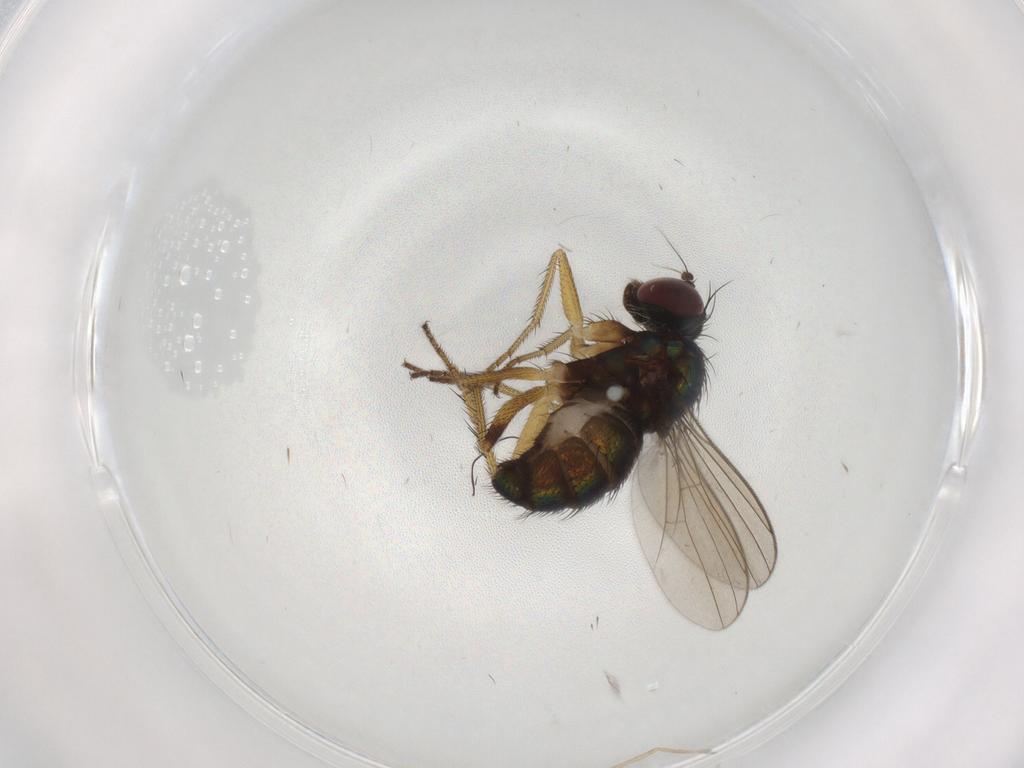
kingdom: Animalia
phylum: Arthropoda
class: Insecta
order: Diptera
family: Dolichopodidae
